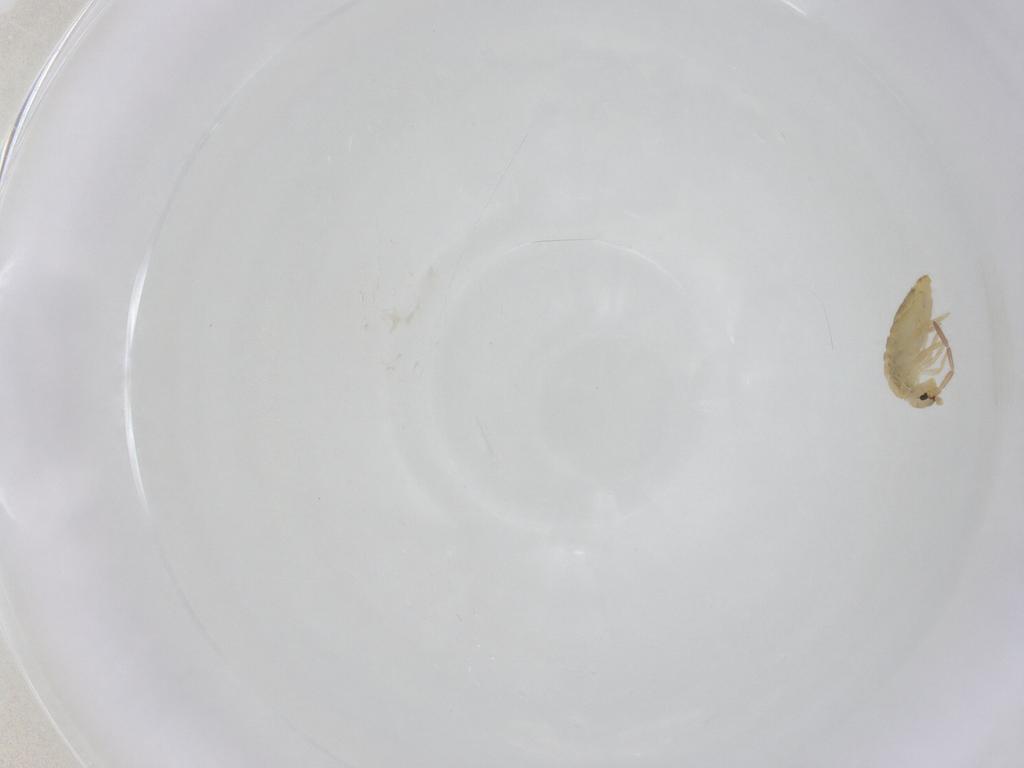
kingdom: Animalia
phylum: Arthropoda
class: Collembola
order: Entomobryomorpha
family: Entomobryidae
